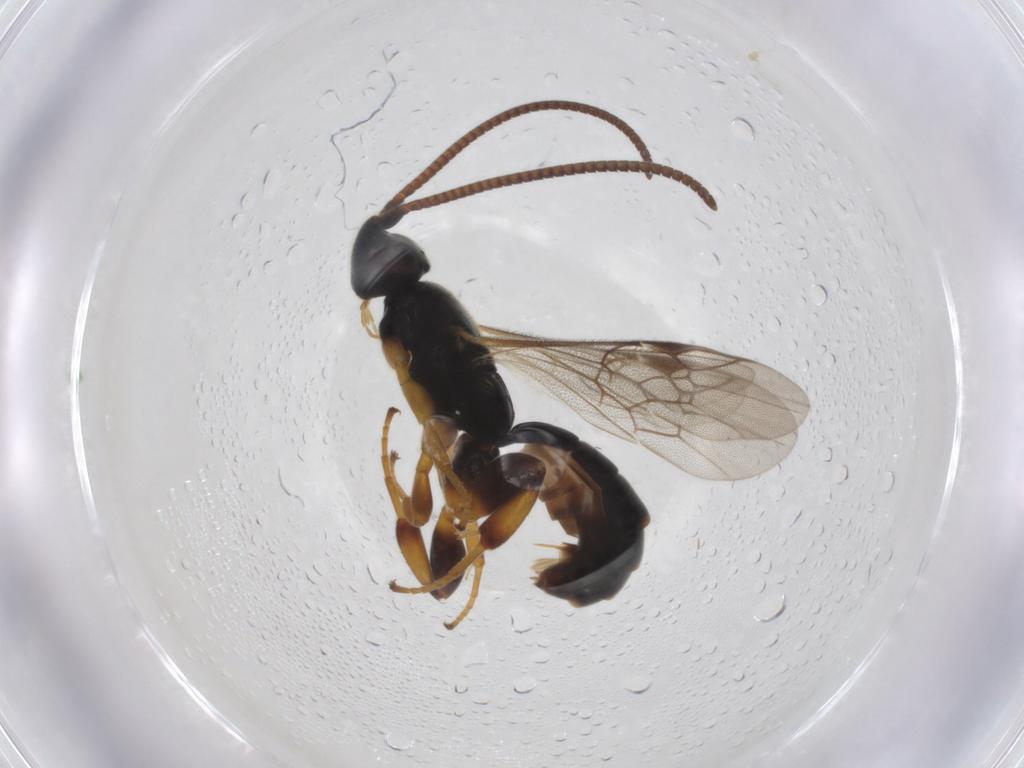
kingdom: Animalia
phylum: Arthropoda
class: Insecta
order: Hymenoptera
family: Ichneumonidae
